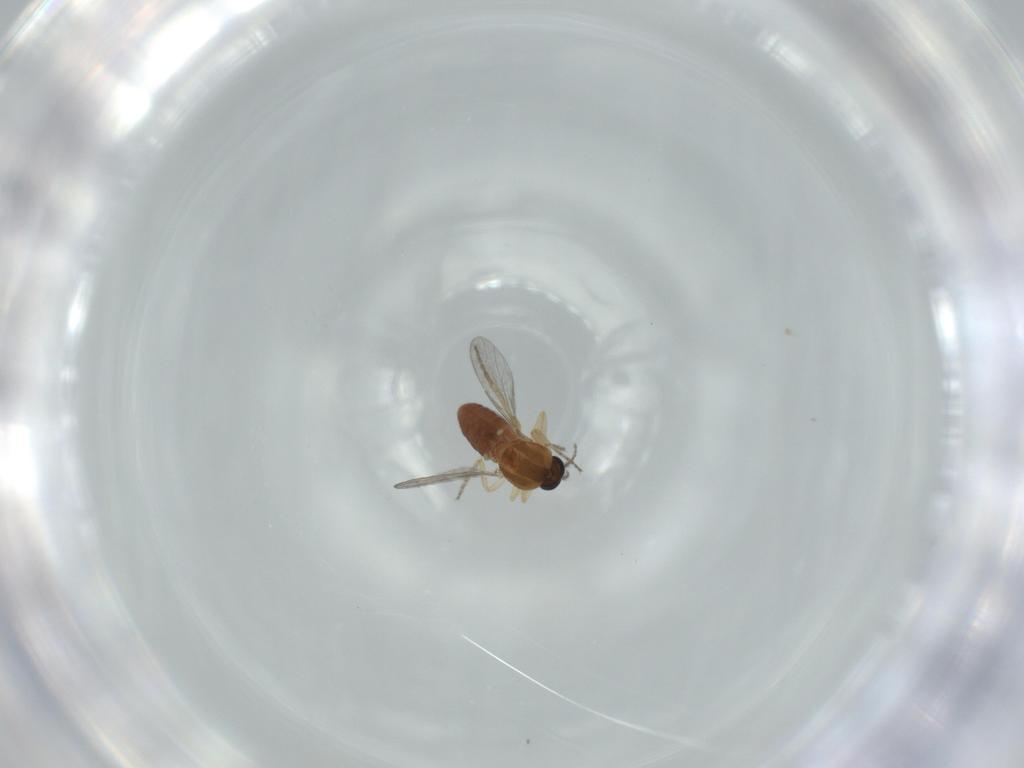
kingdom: Animalia
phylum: Arthropoda
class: Insecta
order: Diptera
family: Ceratopogonidae
